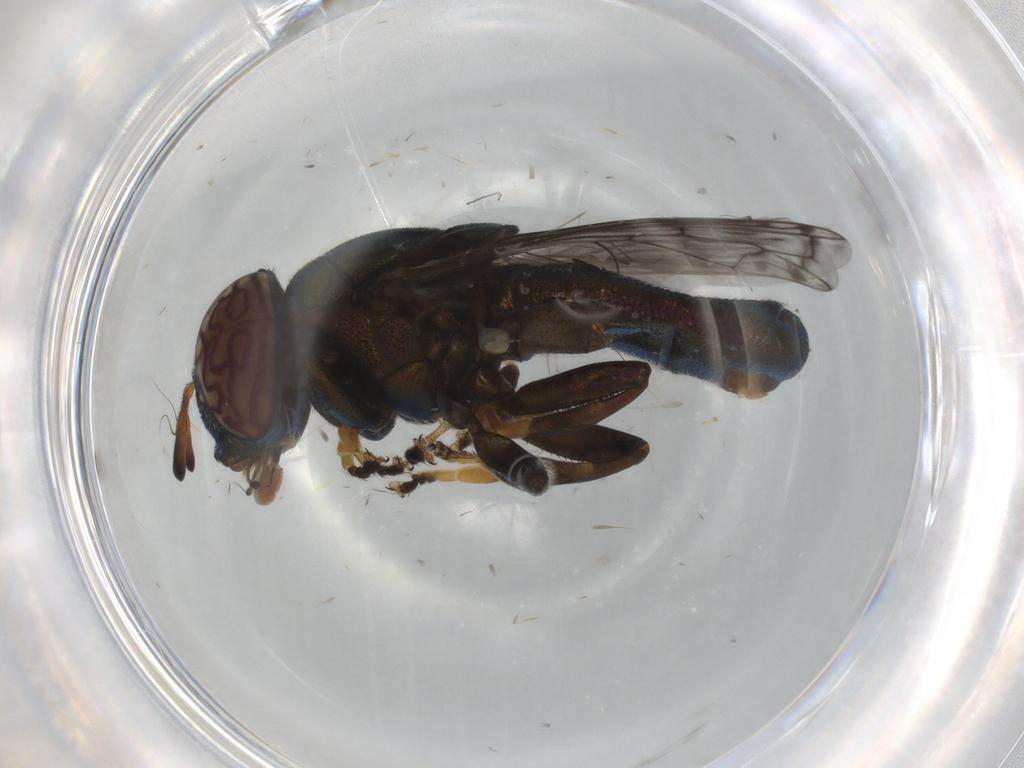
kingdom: Animalia
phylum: Arthropoda
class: Insecta
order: Diptera
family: Syrphidae
